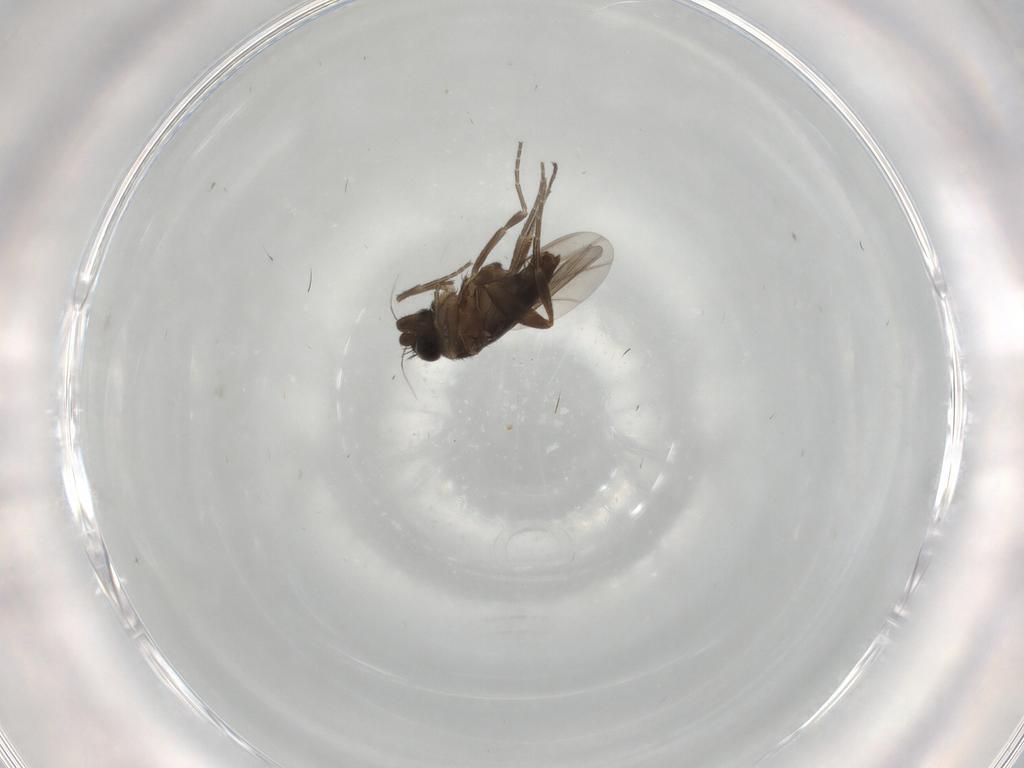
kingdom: Animalia
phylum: Arthropoda
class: Insecta
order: Diptera
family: Phoridae
